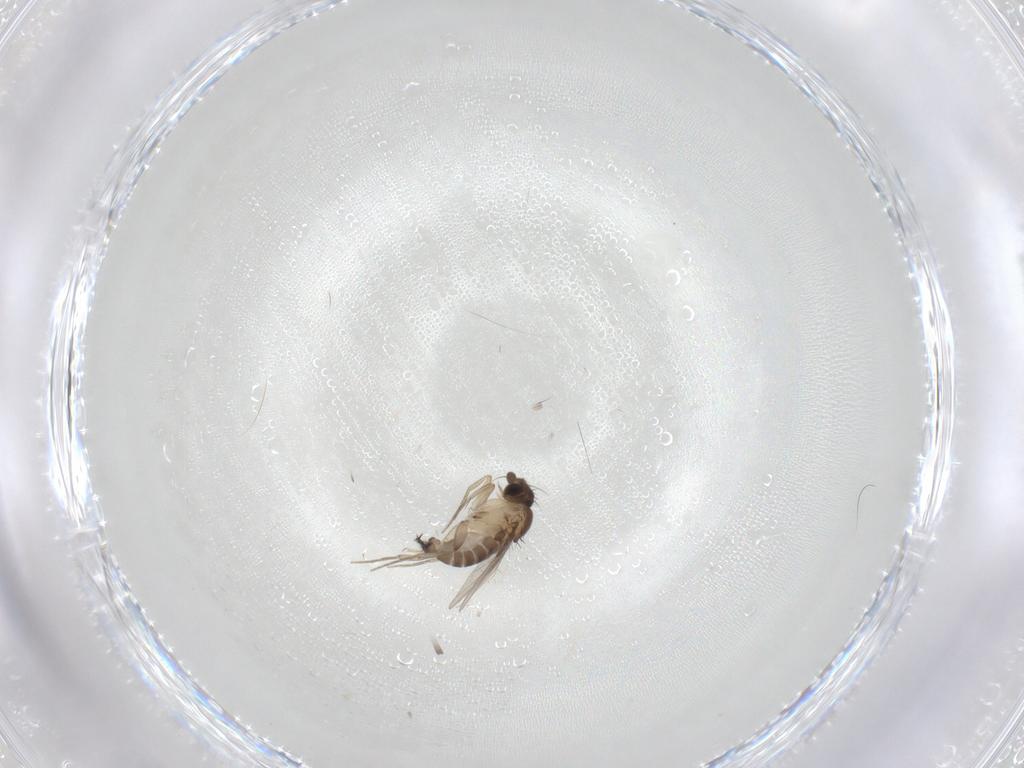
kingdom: Animalia
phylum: Arthropoda
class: Insecta
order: Diptera
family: Phoridae
